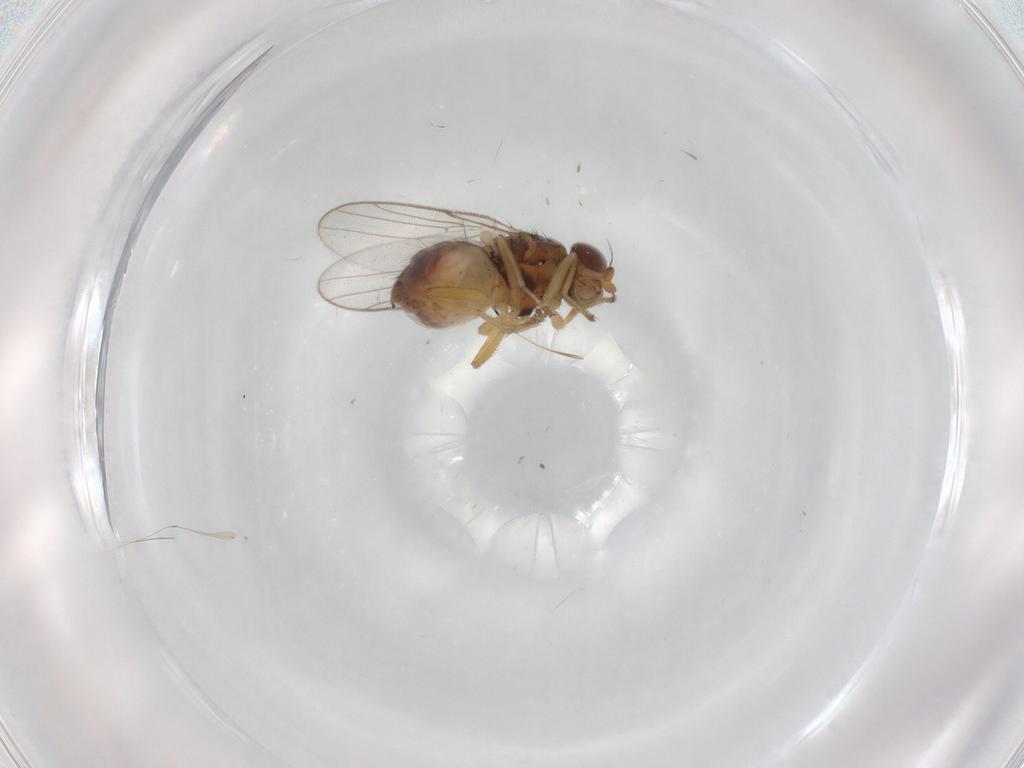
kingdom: Animalia
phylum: Arthropoda
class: Insecta
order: Diptera
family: Chloropidae
